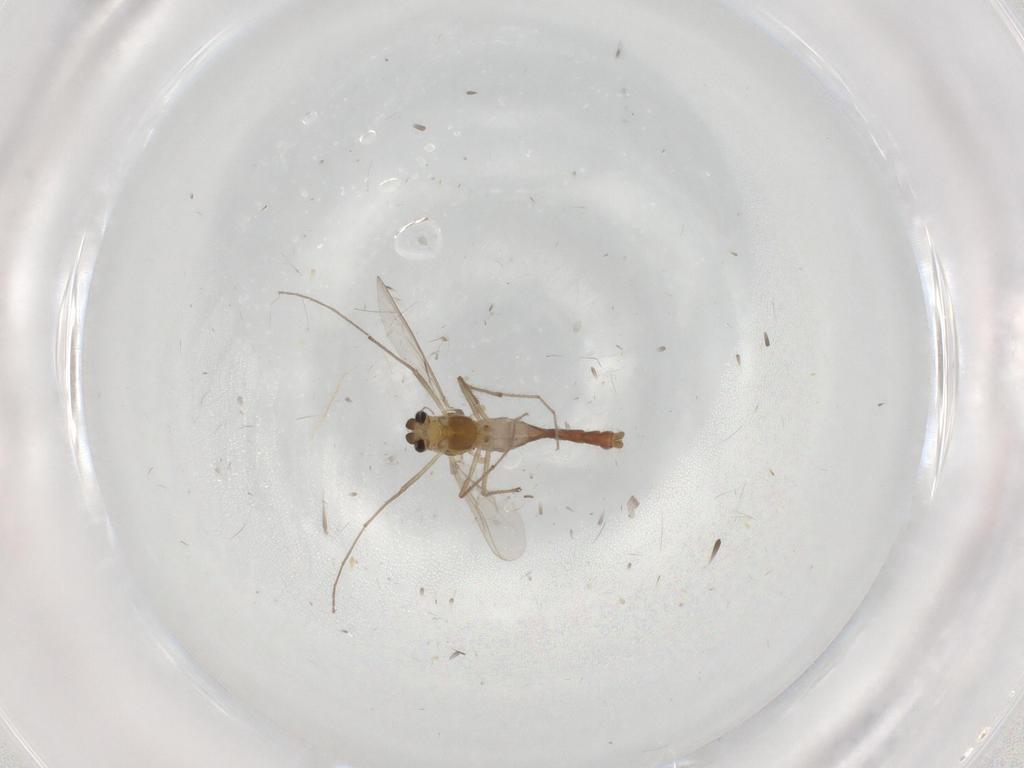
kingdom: Animalia
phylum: Arthropoda
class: Insecta
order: Diptera
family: Chironomidae
